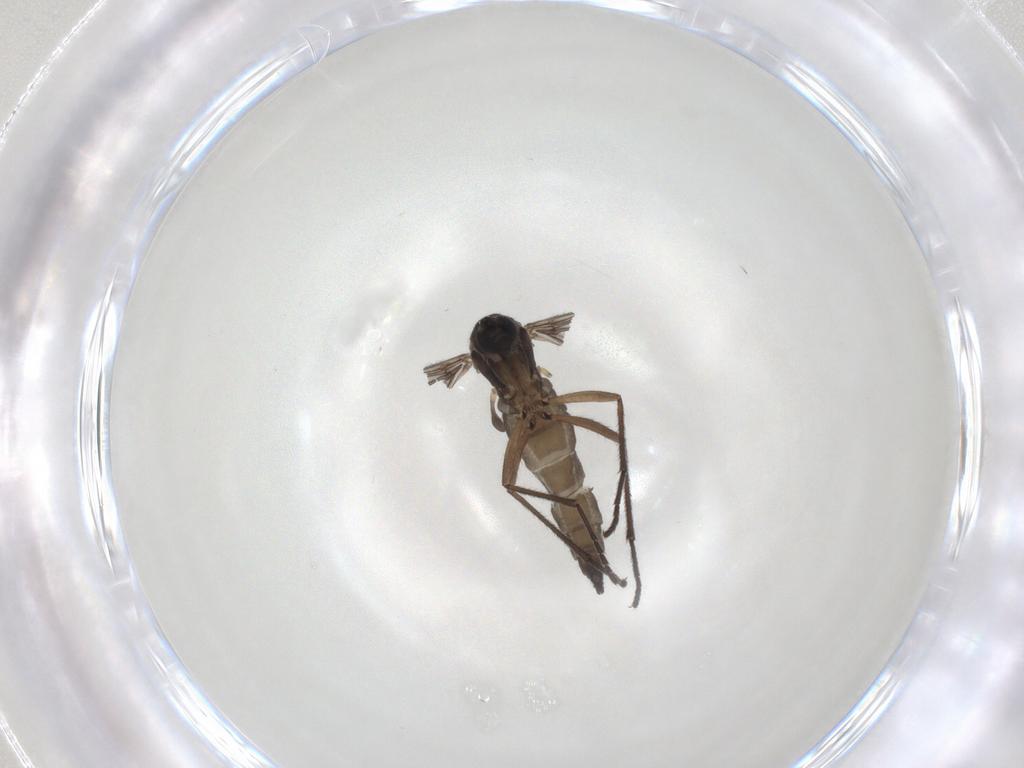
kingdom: Animalia
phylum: Arthropoda
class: Insecta
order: Diptera
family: Sciaridae
